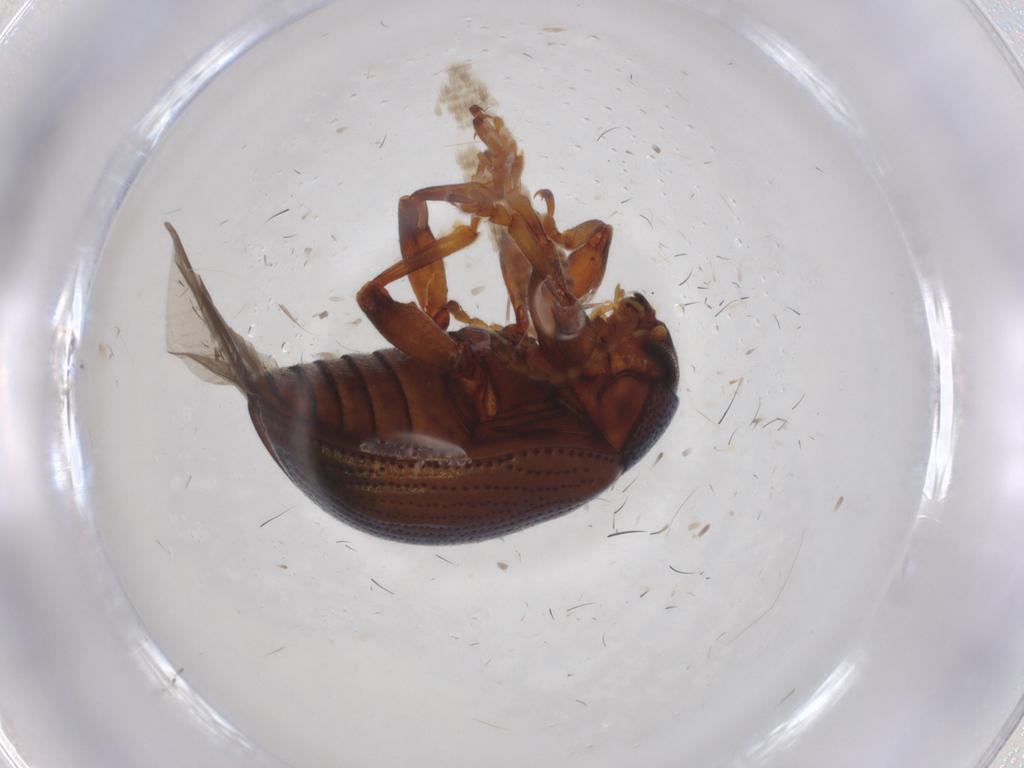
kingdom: Animalia
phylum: Arthropoda
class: Insecta
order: Coleoptera
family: Chrysomelidae
